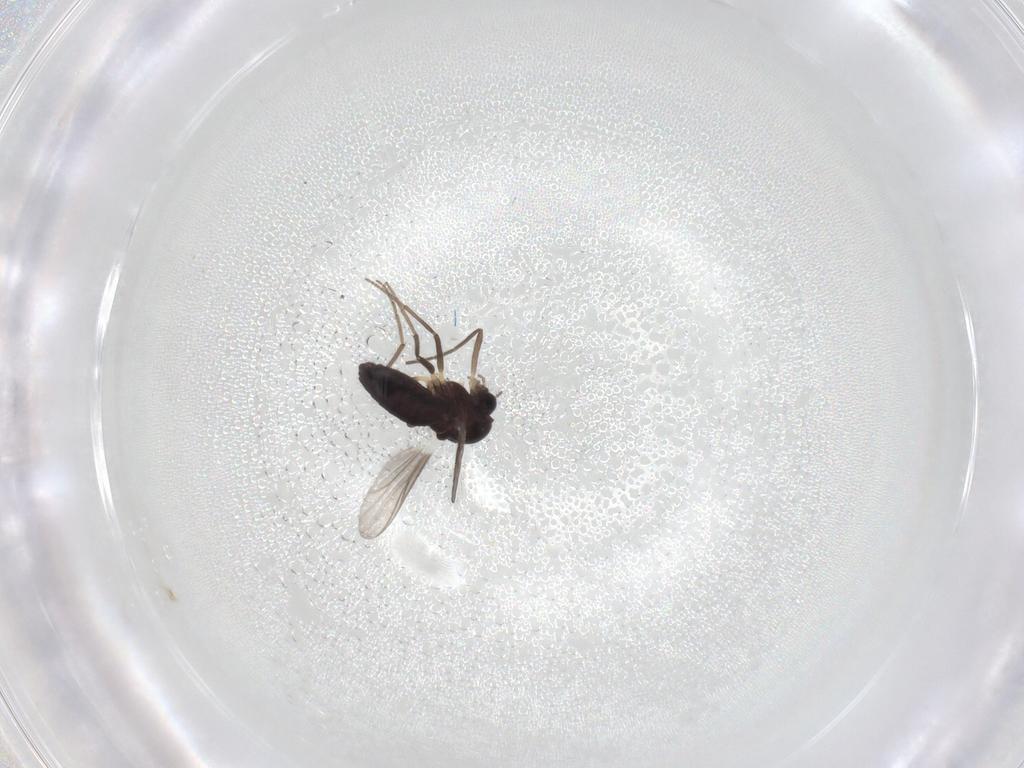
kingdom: Animalia
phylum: Arthropoda
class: Insecta
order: Diptera
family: Chironomidae
